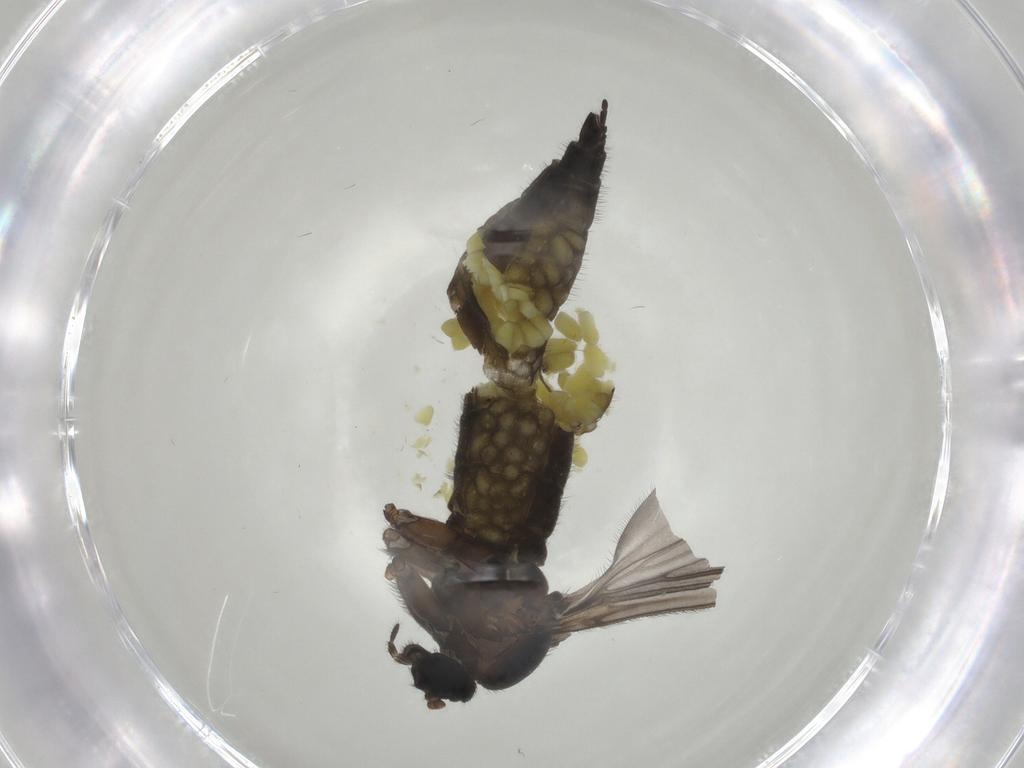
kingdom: Animalia
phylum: Arthropoda
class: Insecta
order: Diptera
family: Sciaridae
